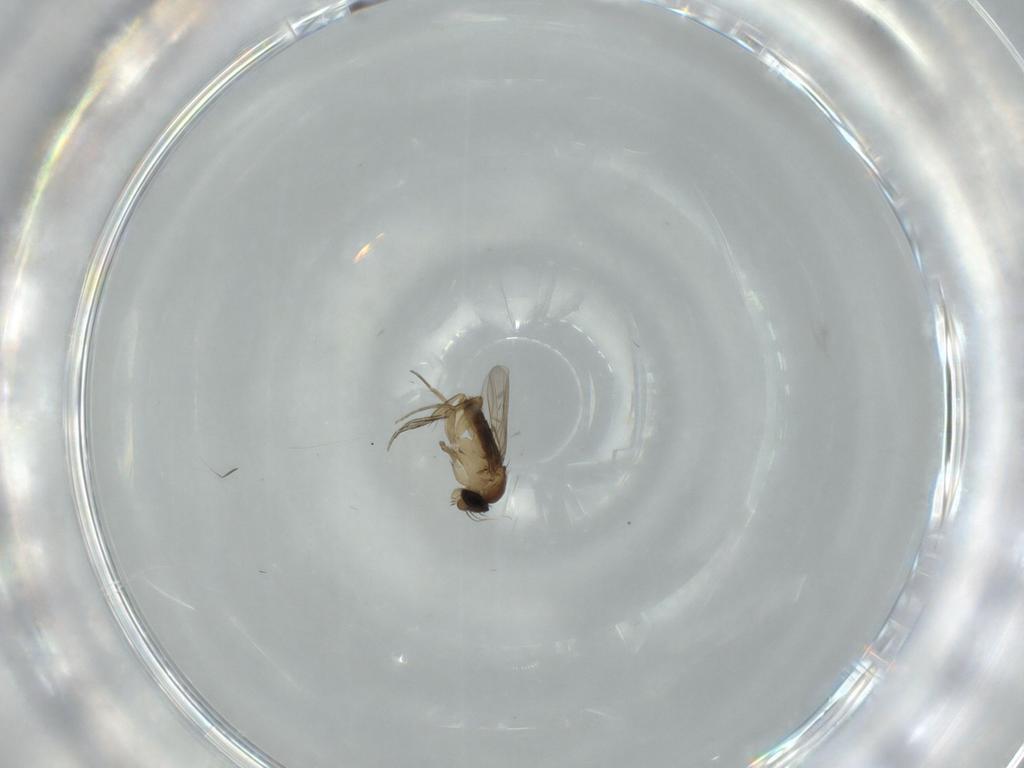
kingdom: Animalia
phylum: Arthropoda
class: Insecta
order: Diptera
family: Phoridae
